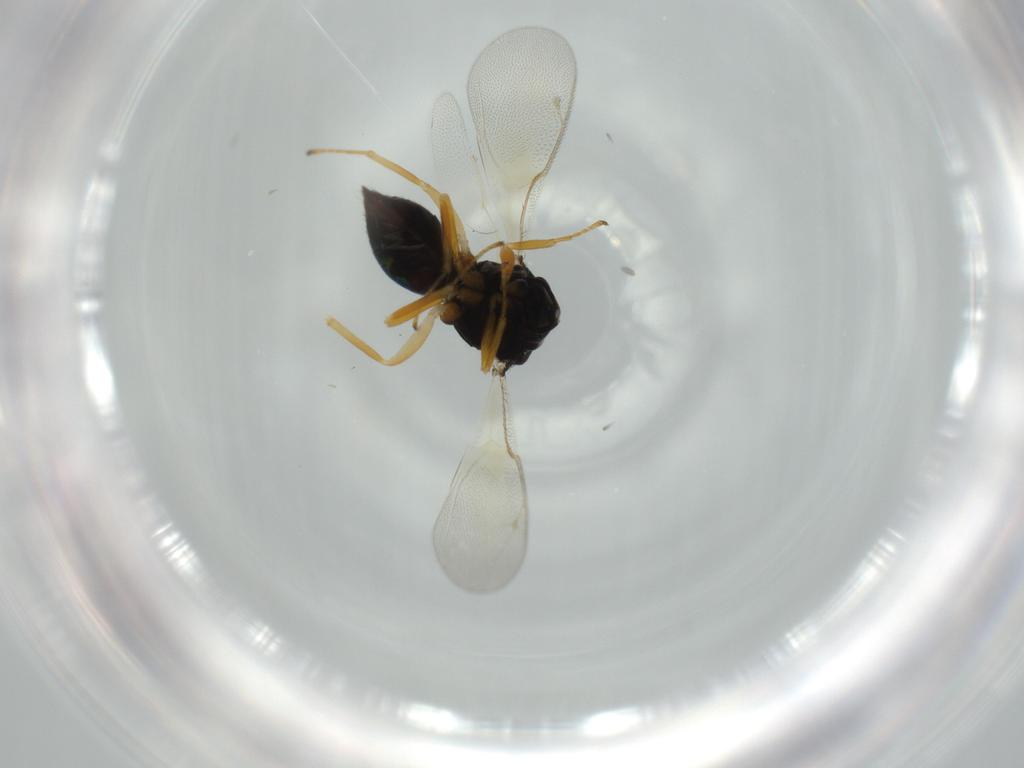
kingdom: Animalia
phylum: Arthropoda
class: Insecta
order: Hymenoptera
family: Pteromalidae
